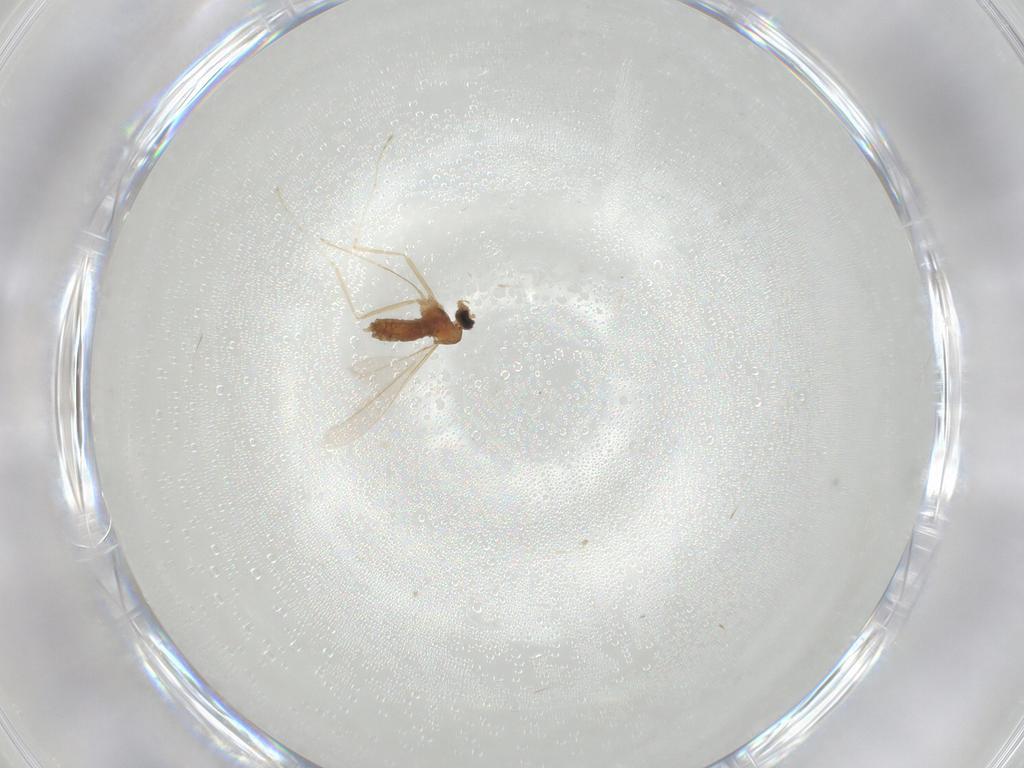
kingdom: Animalia
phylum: Arthropoda
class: Insecta
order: Diptera
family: Cecidomyiidae
